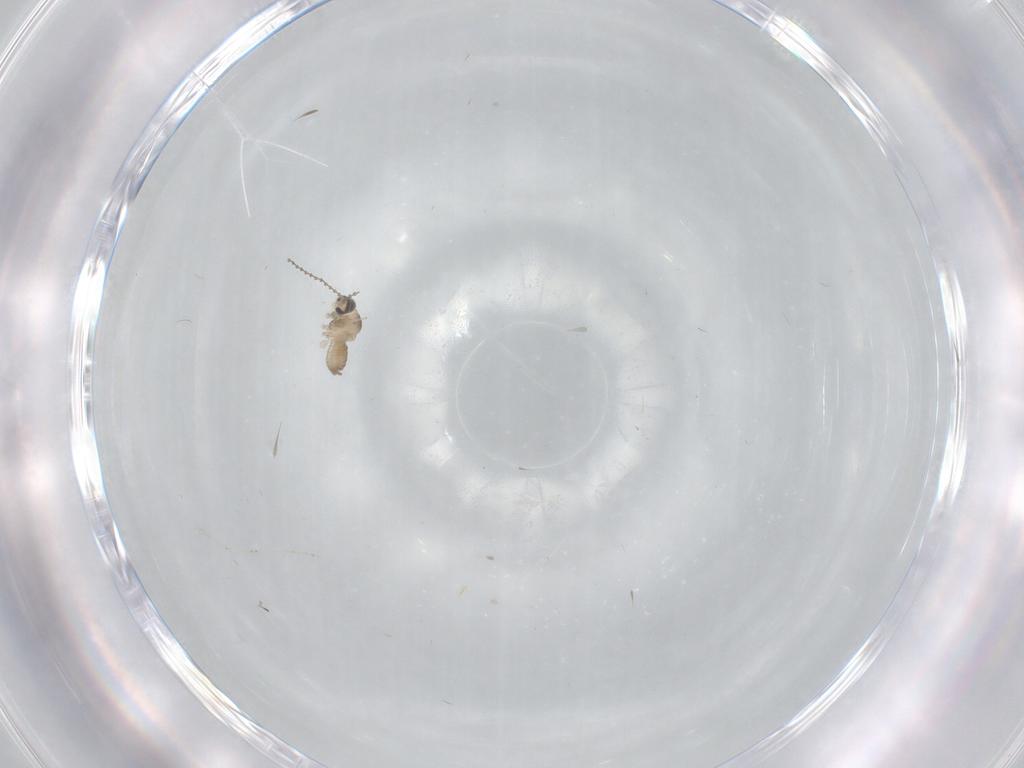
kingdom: Animalia
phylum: Arthropoda
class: Insecta
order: Diptera
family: Cecidomyiidae
